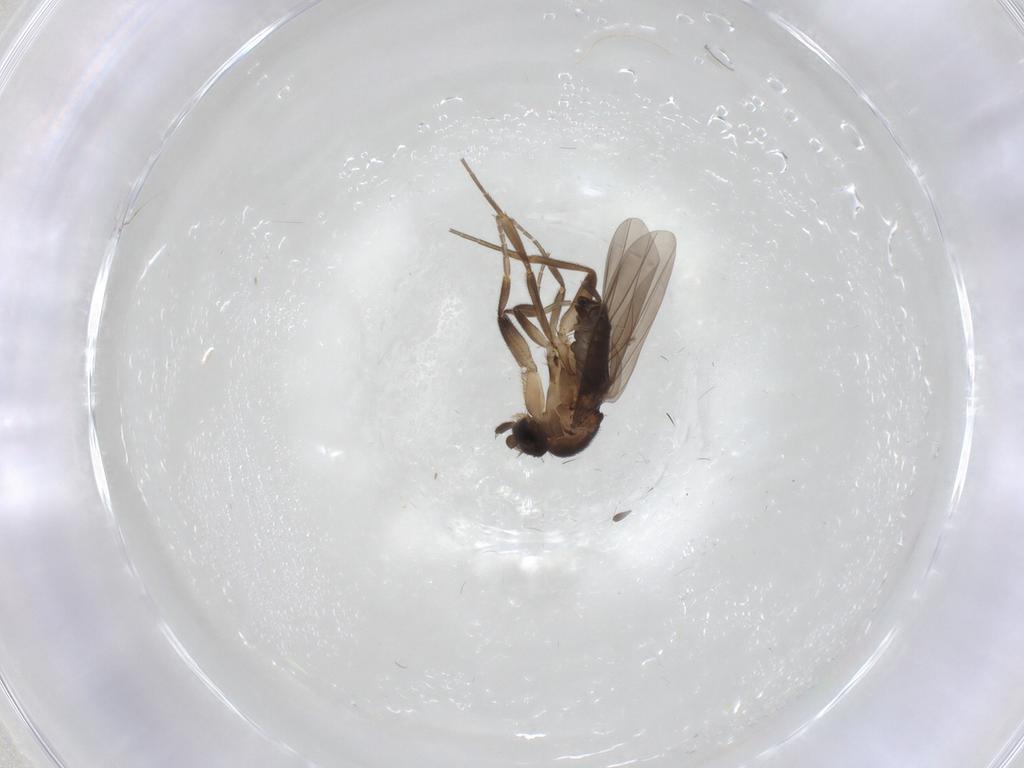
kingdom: Animalia
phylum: Arthropoda
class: Insecta
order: Diptera
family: Phoridae
